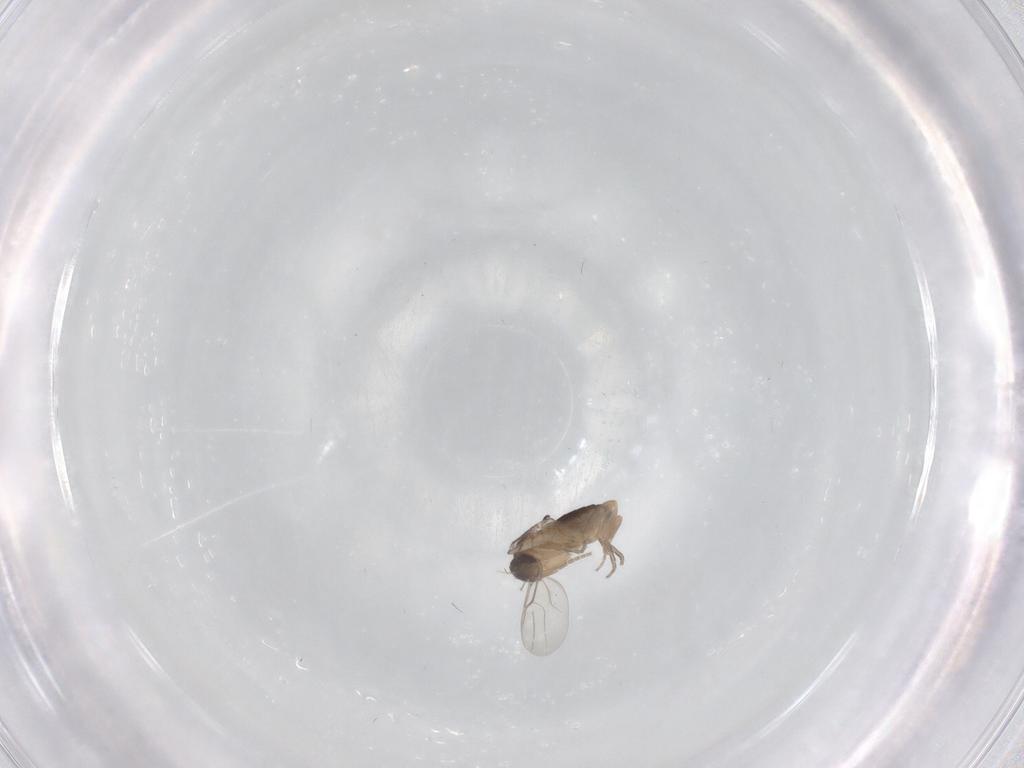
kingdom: Animalia
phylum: Arthropoda
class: Insecta
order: Diptera
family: Phoridae
